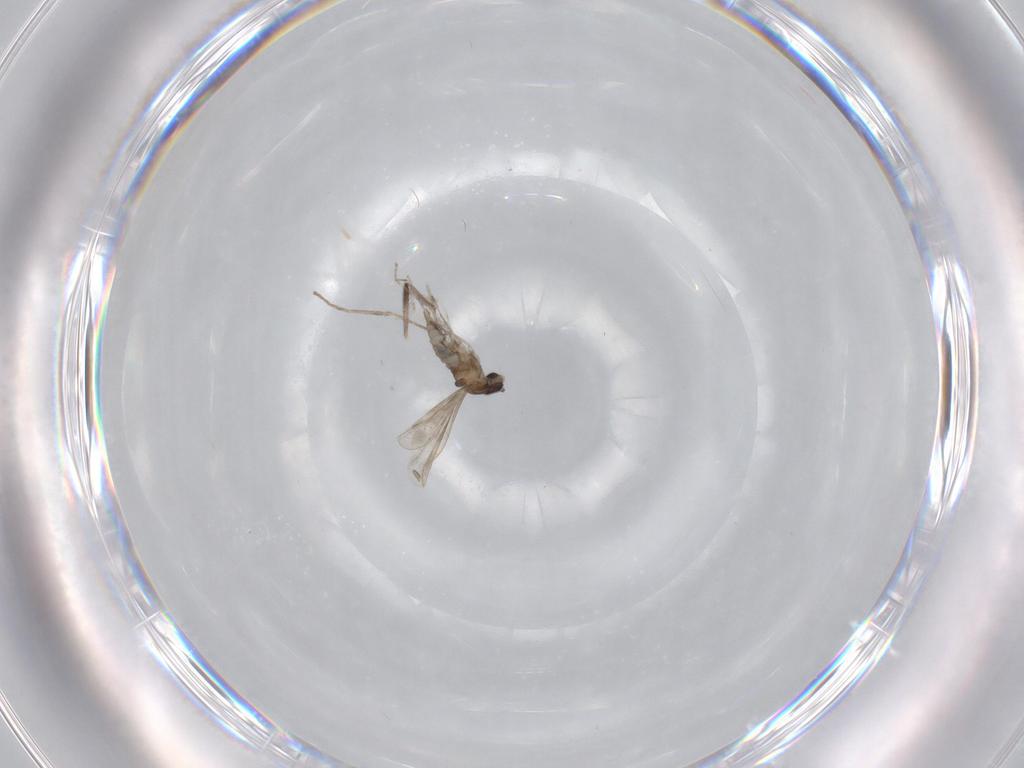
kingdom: Animalia
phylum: Arthropoda
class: Insecta
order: Diptera
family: Cecidomyiidae
